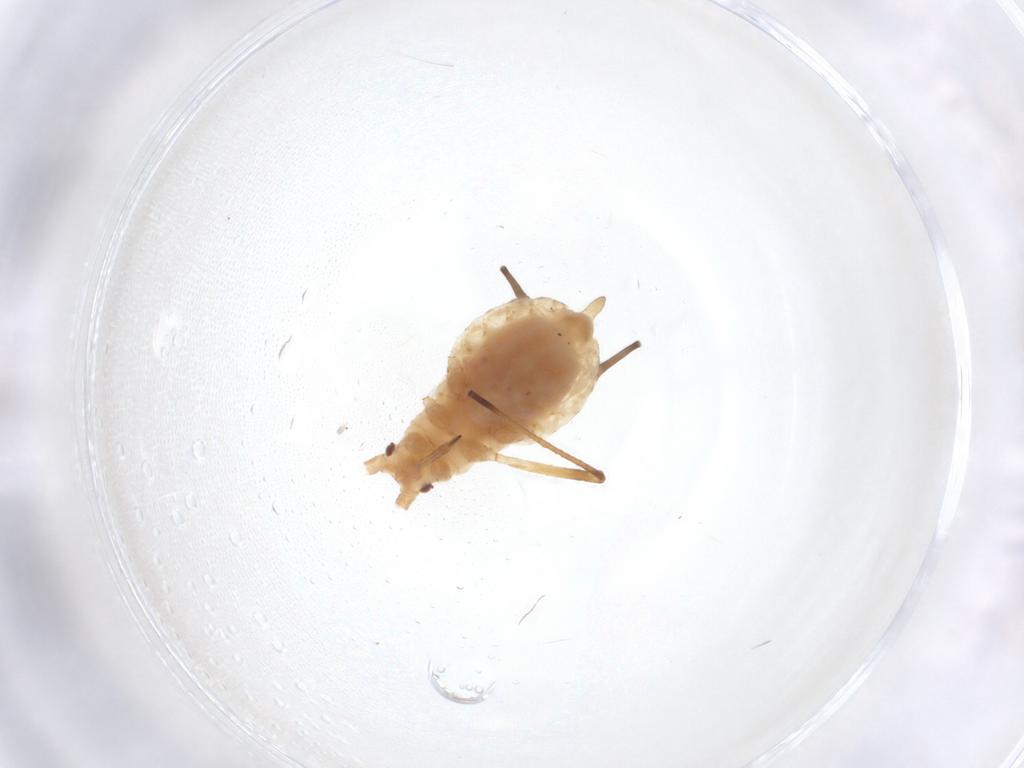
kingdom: Animalia
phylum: Arthropoda
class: Insecta
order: Hemiptera
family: Aphididae
